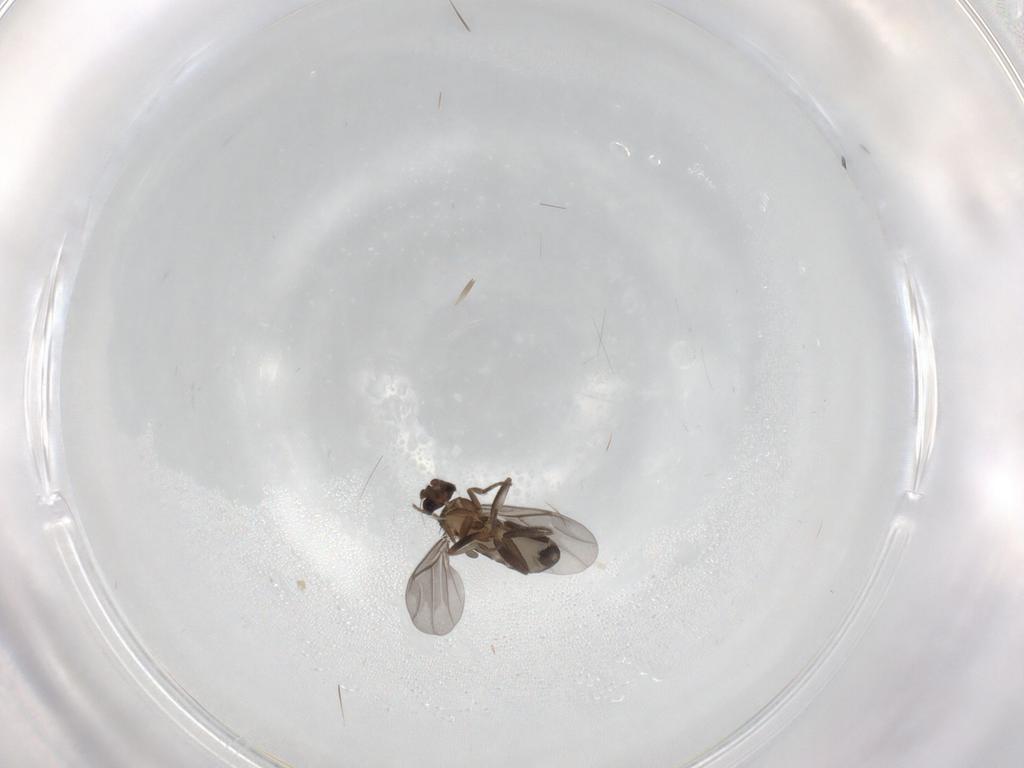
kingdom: Animalia
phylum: Arthropoda
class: Insecta
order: Diptera
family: Phoridae
